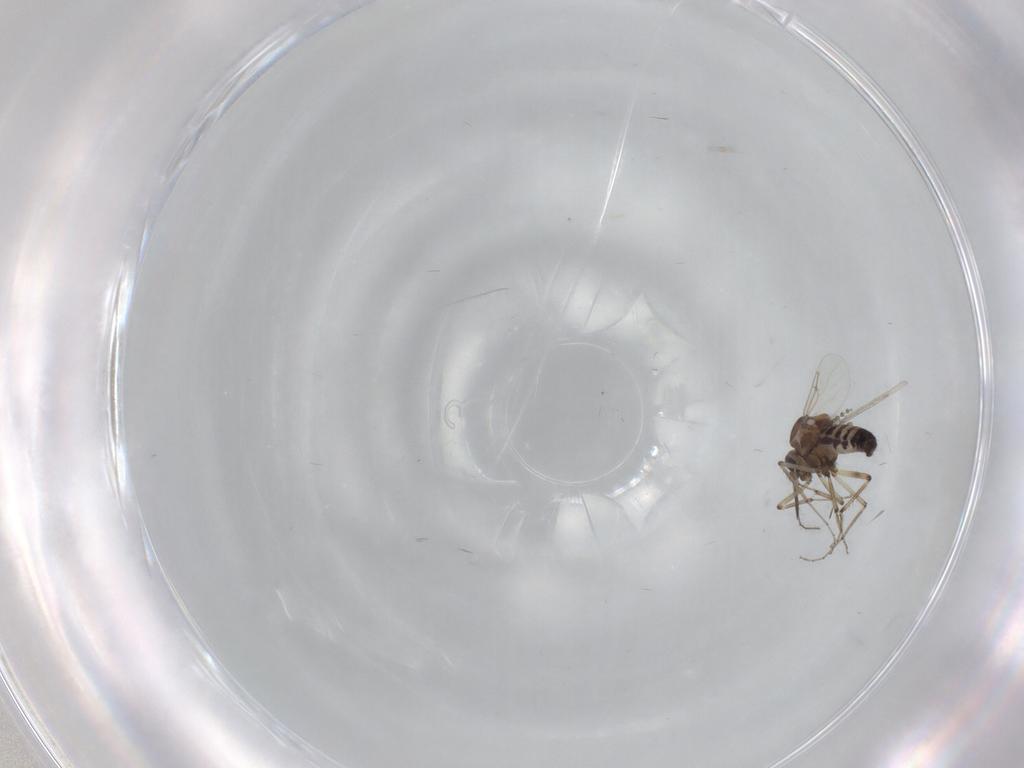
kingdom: Animalia
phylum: Arthropoda
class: Insecta
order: Diptera
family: Ceratopogonidae
